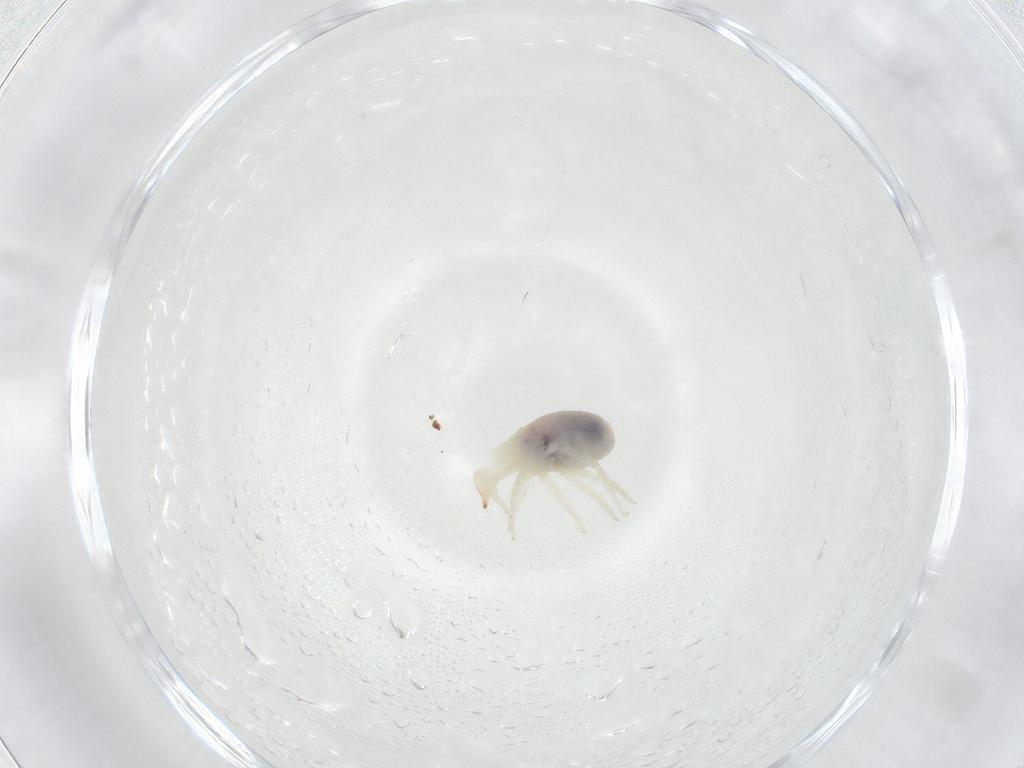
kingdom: Animalia
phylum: Arthropoda
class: Arachnida
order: Trombidiformes
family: Bdellidae
